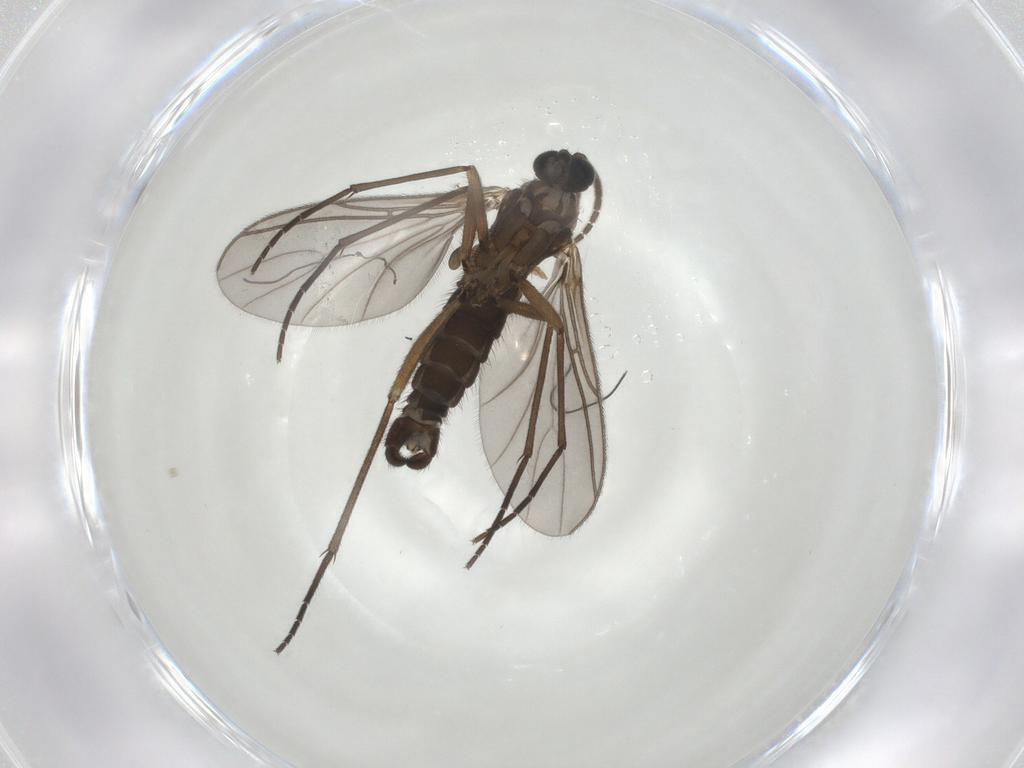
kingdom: Animalia
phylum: Arthropoda
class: Insecta
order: Diptera
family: Sciaridae
